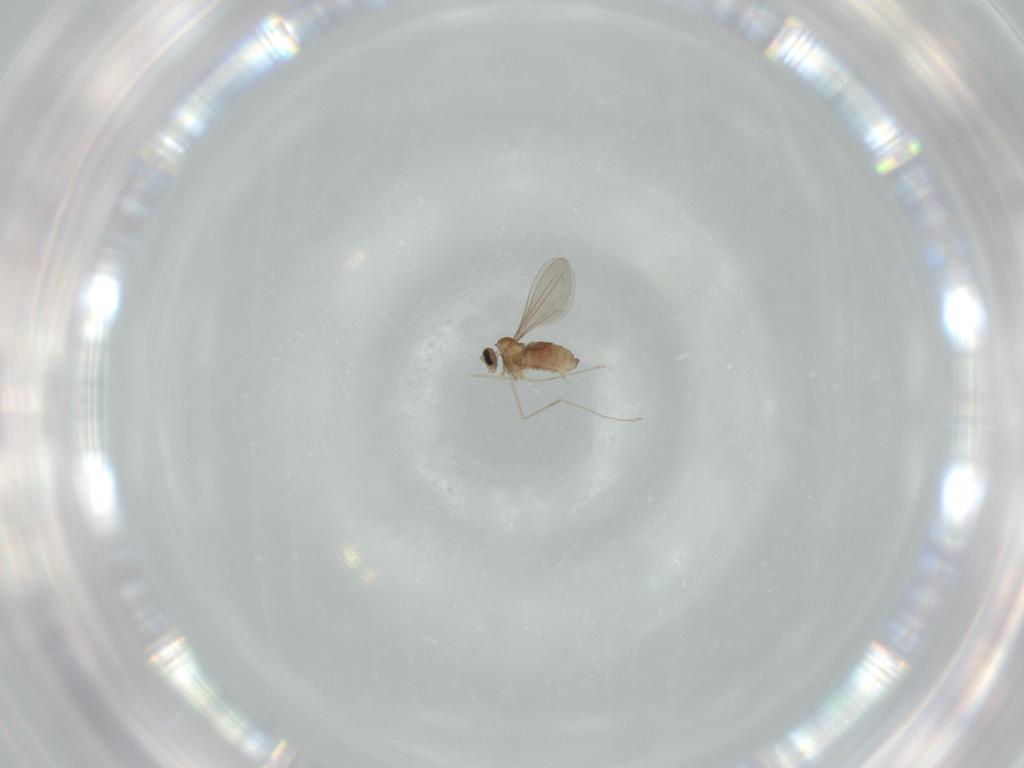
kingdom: Animalia
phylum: Arthropoda
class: Insecta
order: Diptera
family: Cecidomyiidae
